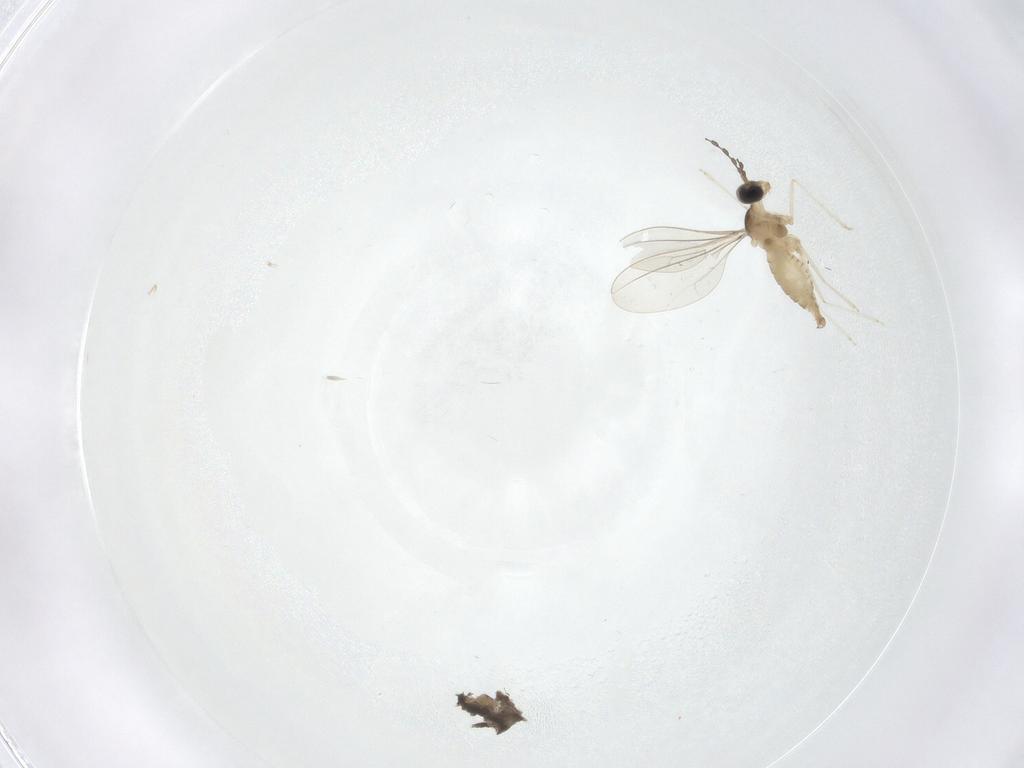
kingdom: Animalia
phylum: Arthropoda
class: Insecta
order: Diptera
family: Cecidomyiidae
